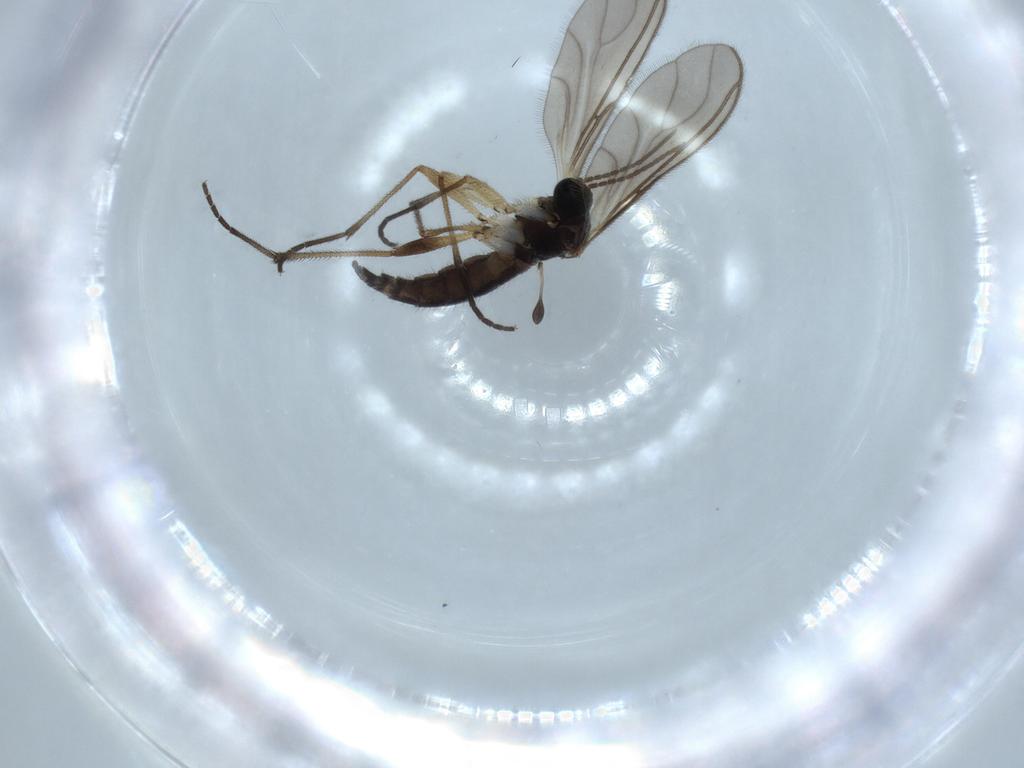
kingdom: Animalia
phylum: Arthropoda
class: Insecta
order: Diptera
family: Sciaridae
